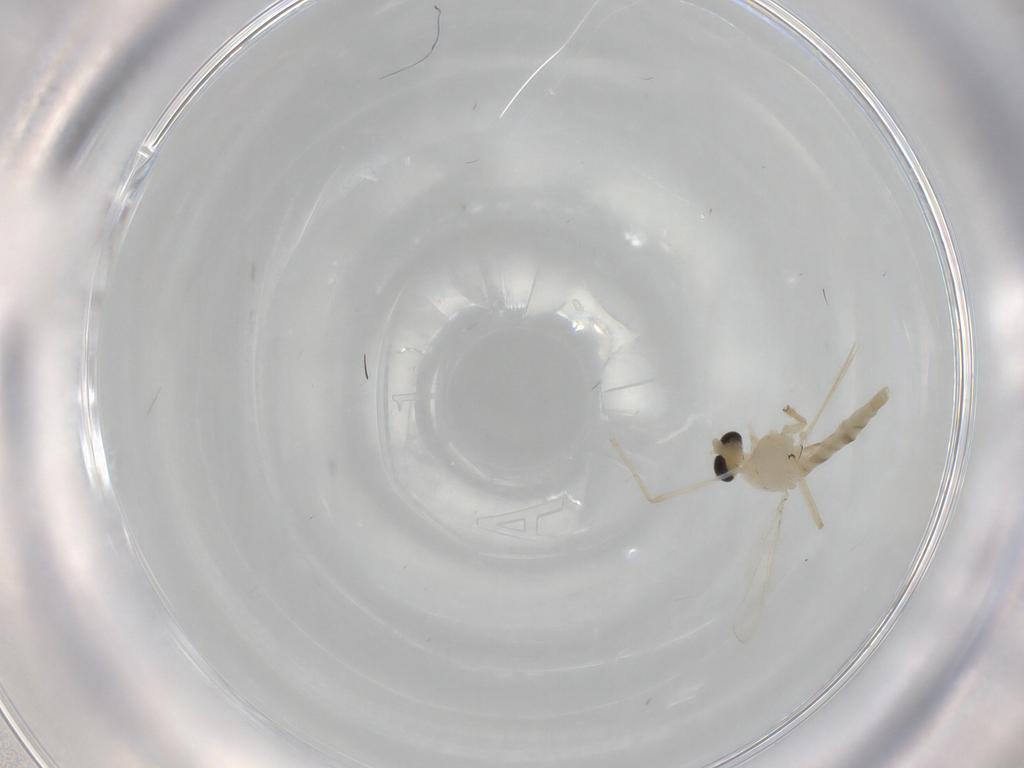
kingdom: Animalia
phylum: Arthropoda
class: Insecta
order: Diptera
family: Chironomidae
